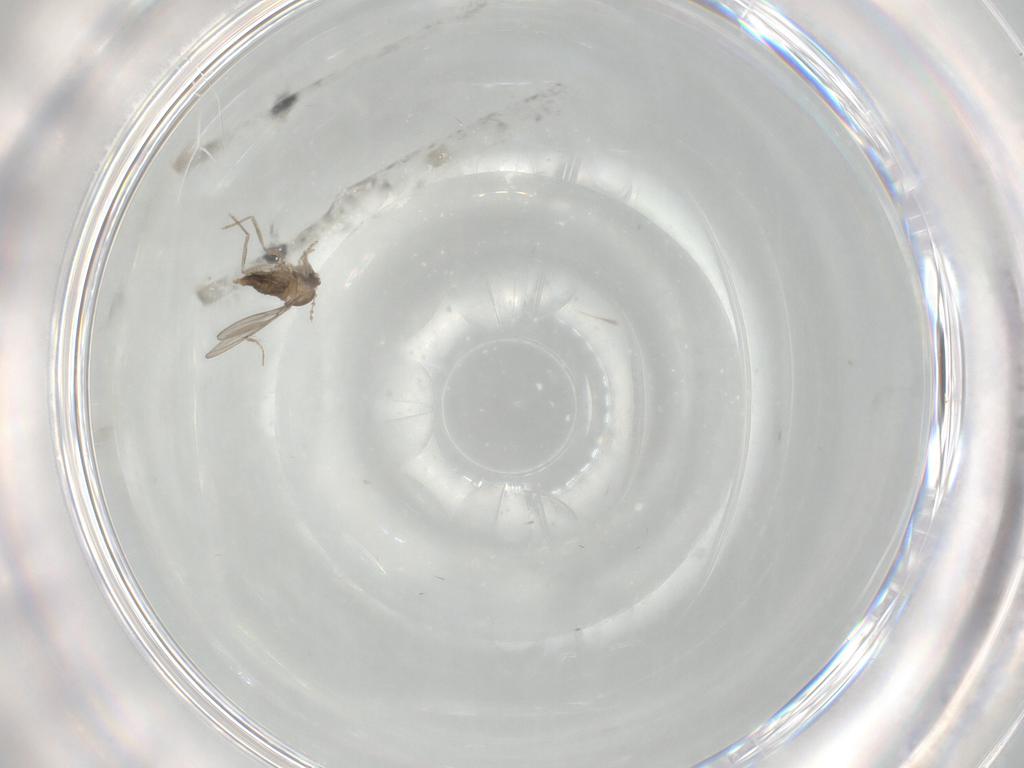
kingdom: Animalia
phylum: Arthropoda
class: Insecta
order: Diptera
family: Cecidomyiidae
